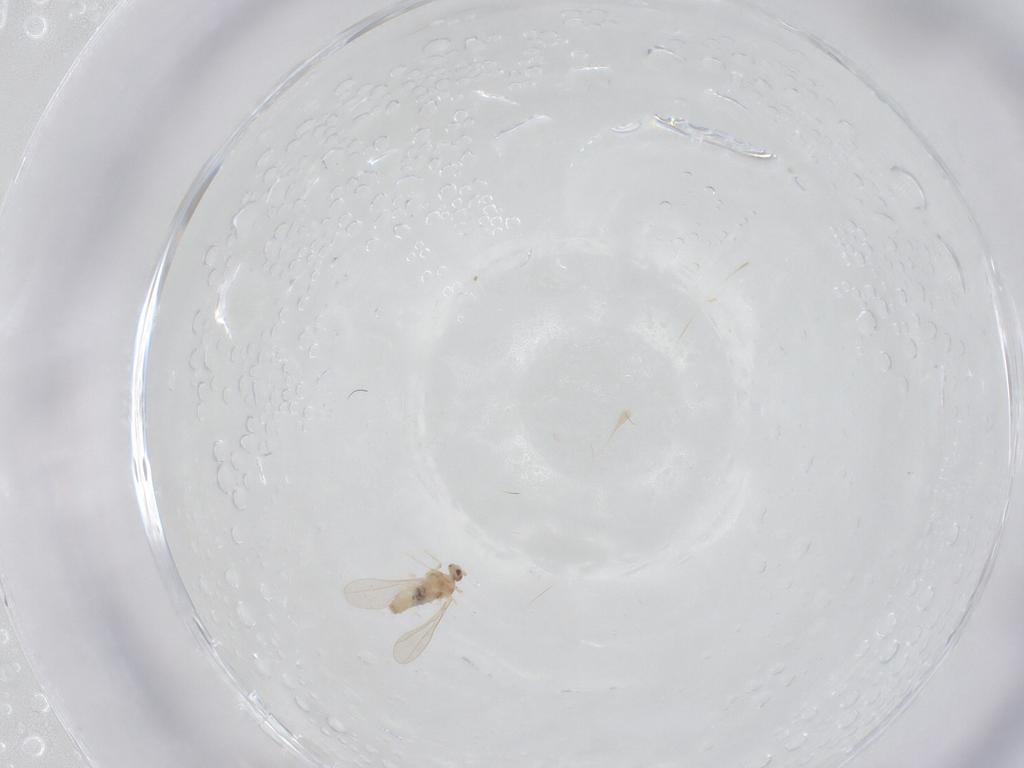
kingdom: Animalia
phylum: Arthropoda
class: Insecta
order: Diptera
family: Cecidomyiidae
